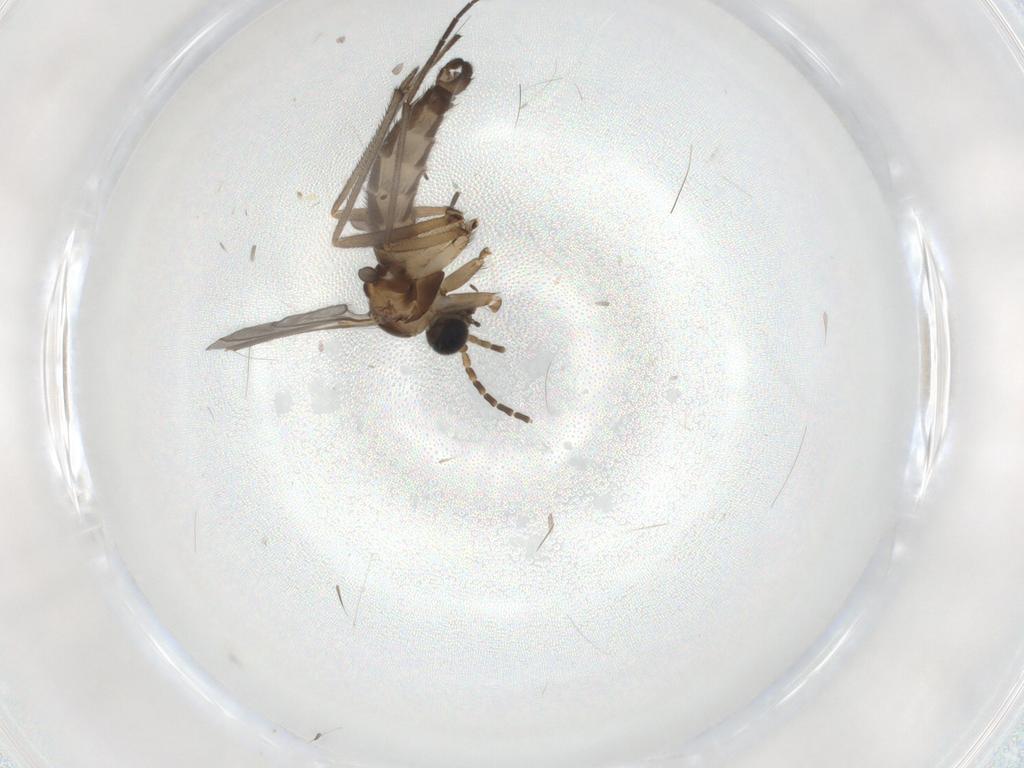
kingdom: Animalia
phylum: Arthropoda
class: Insecta
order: Diptera
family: Sciaridae
